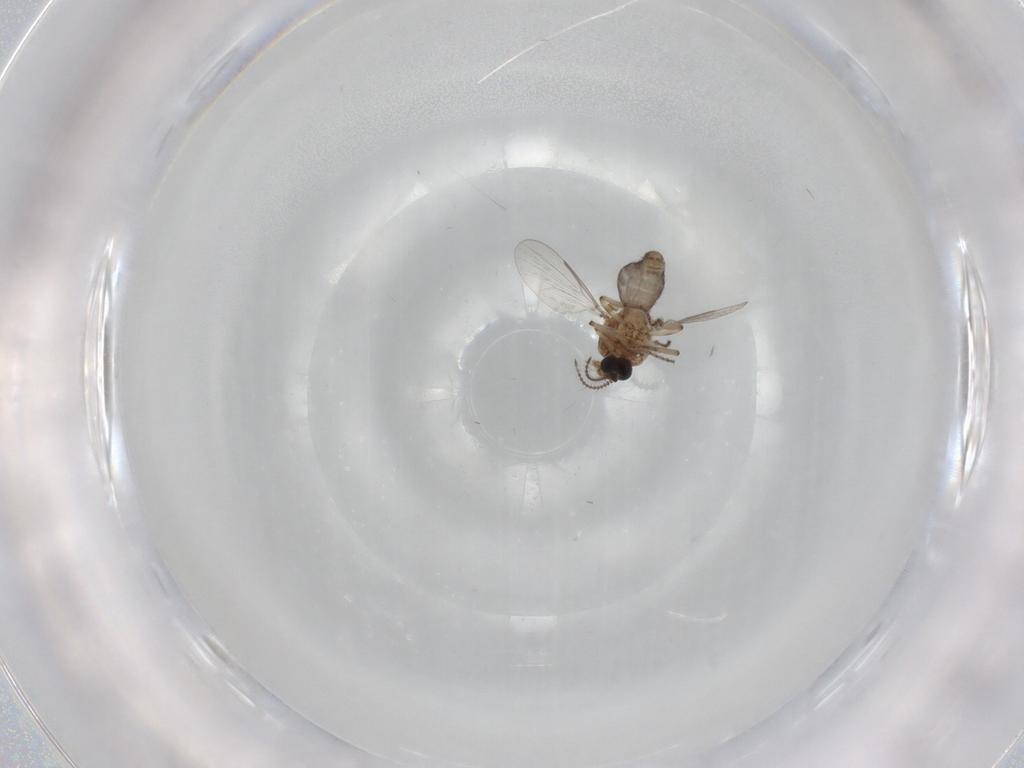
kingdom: Animalia
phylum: Arthropoda
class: Insecta
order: Diptera
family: Ceratopogonidae
